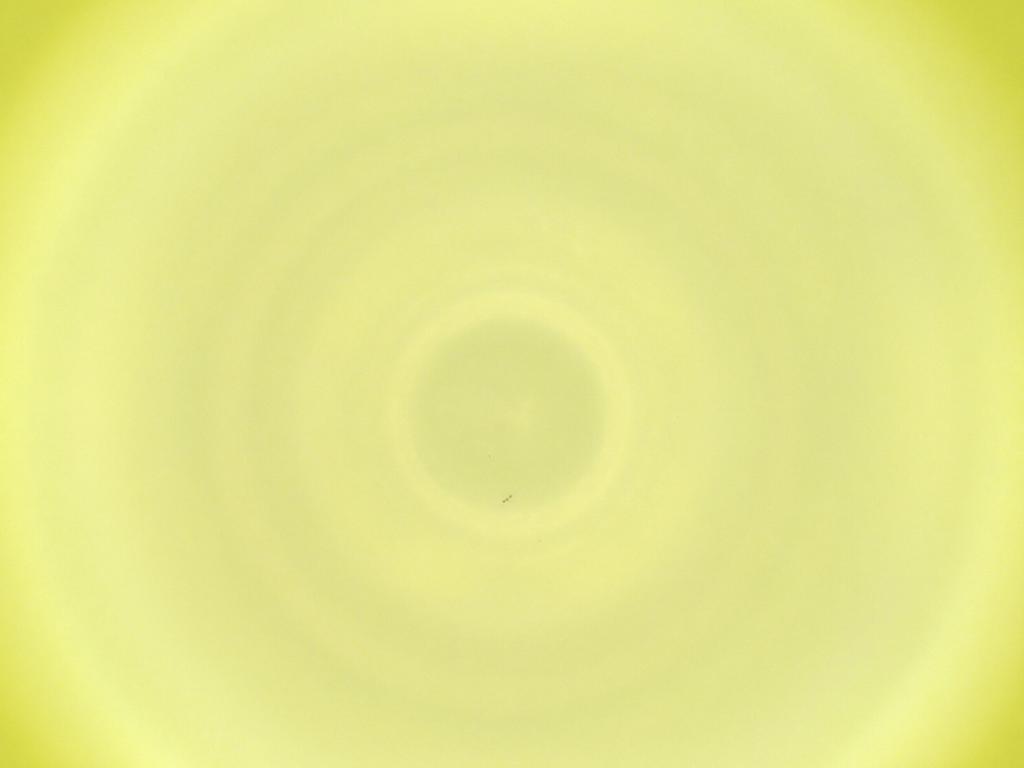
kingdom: Animalia
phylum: Arthropoda
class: Insecta
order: Diptera
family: Cecidomyiidae
